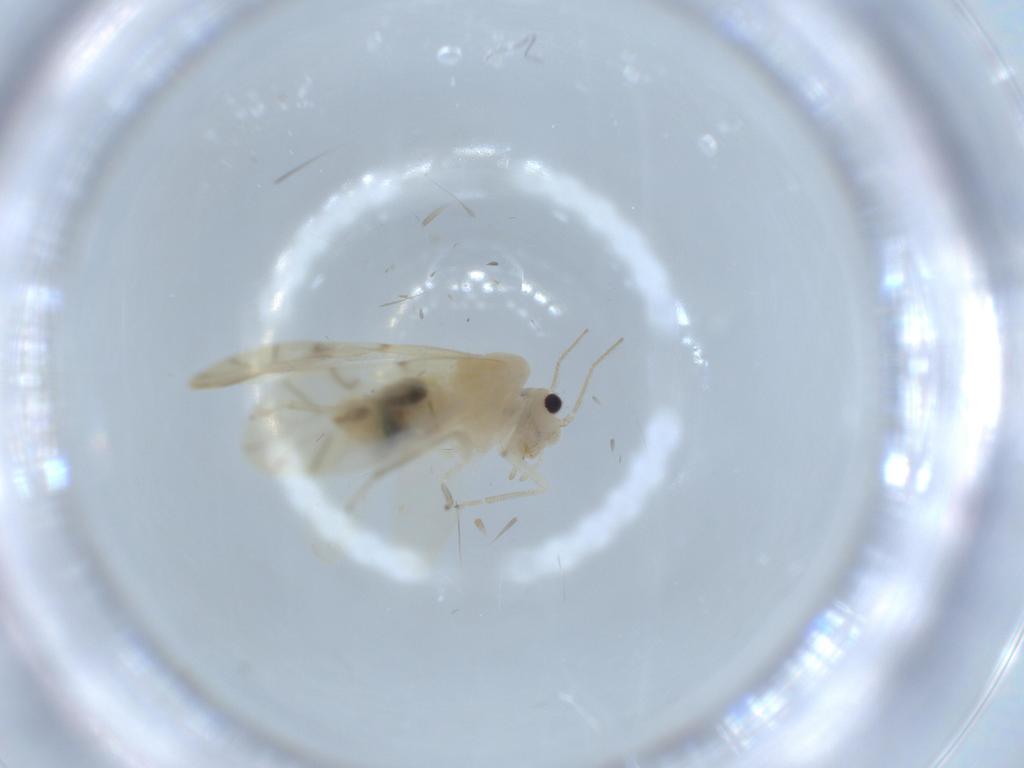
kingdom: Animalia
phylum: Arthropoda
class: Insecta
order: Psocodea
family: Caeciliusidae
